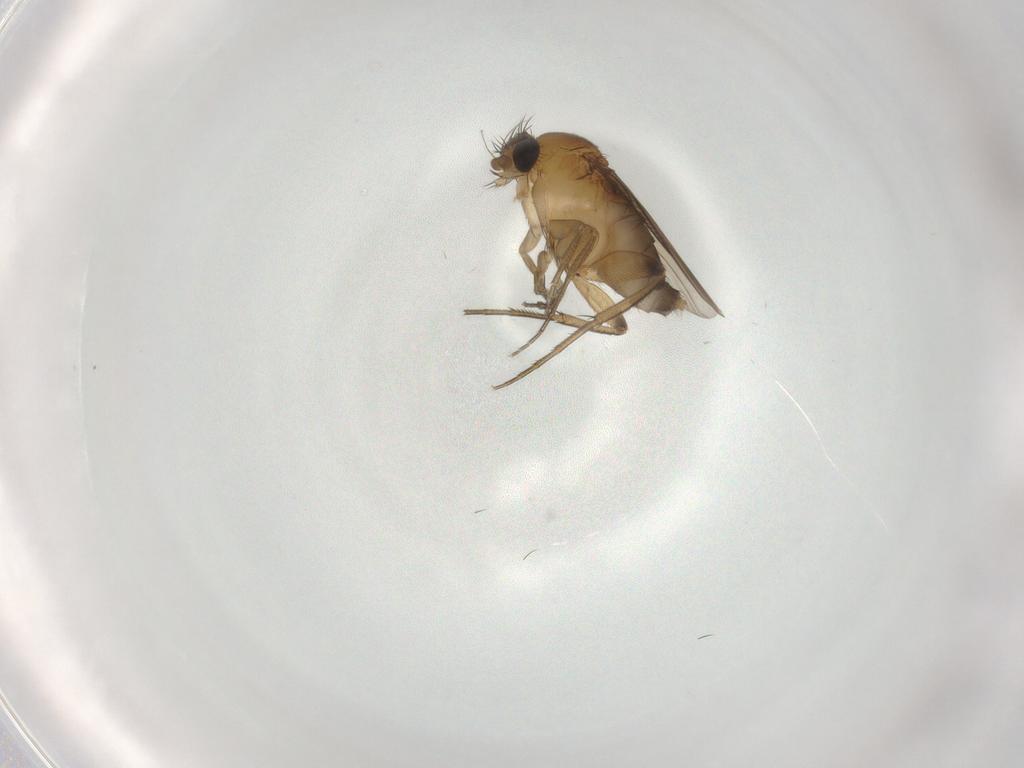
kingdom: Animalia
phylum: Arthropoda
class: Insecta
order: Diptera
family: Phoridae
